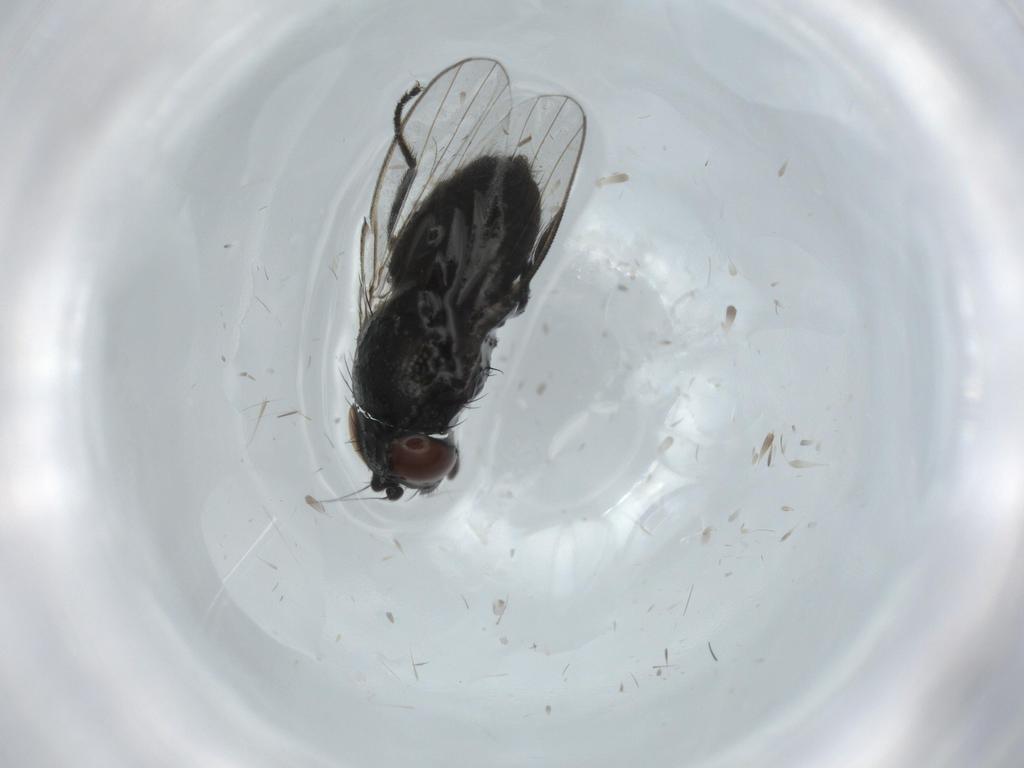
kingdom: Animalia
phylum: Arthropoda
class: Insecta
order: Diptera
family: Milichiidae
